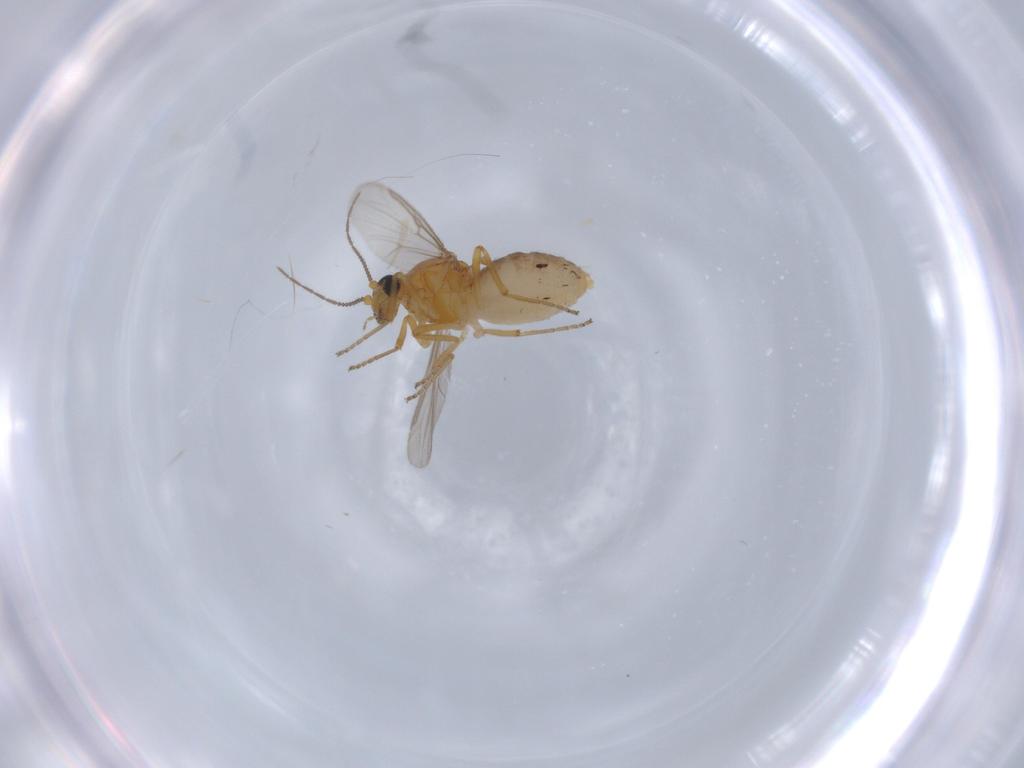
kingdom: Animalia
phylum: Arthropoda
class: Insecta
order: Diptera
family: Ceratopogonidae
